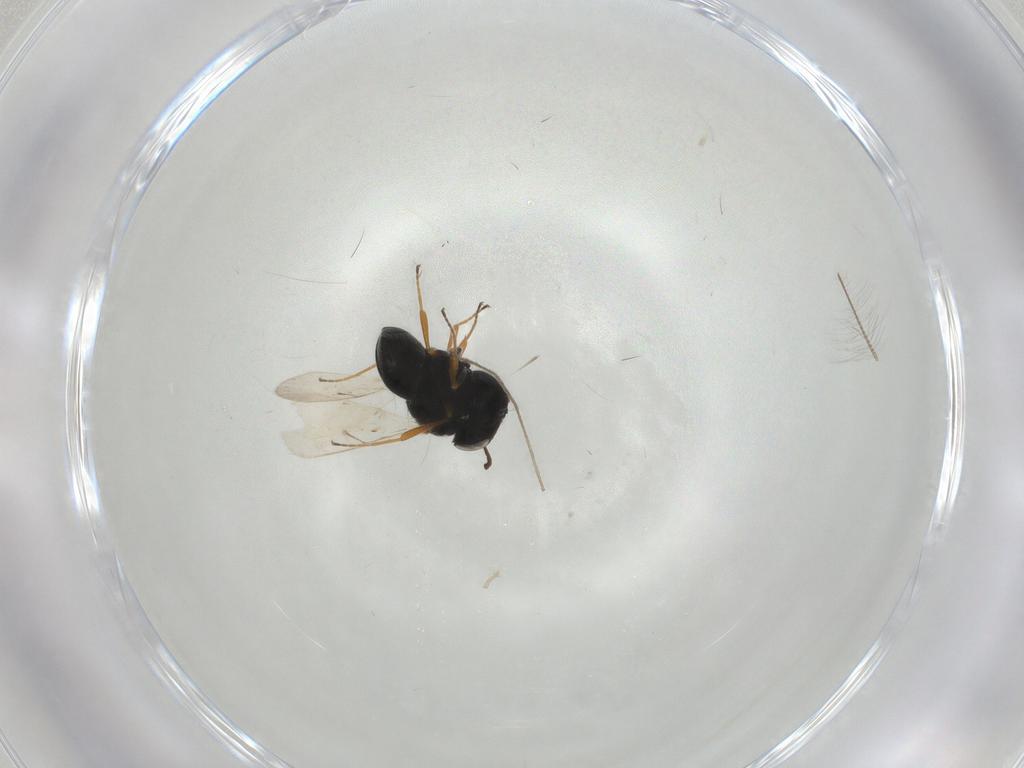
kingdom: Animalia
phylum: Arthropoda
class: Insecta
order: Hymenoptera
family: Scelionidae
